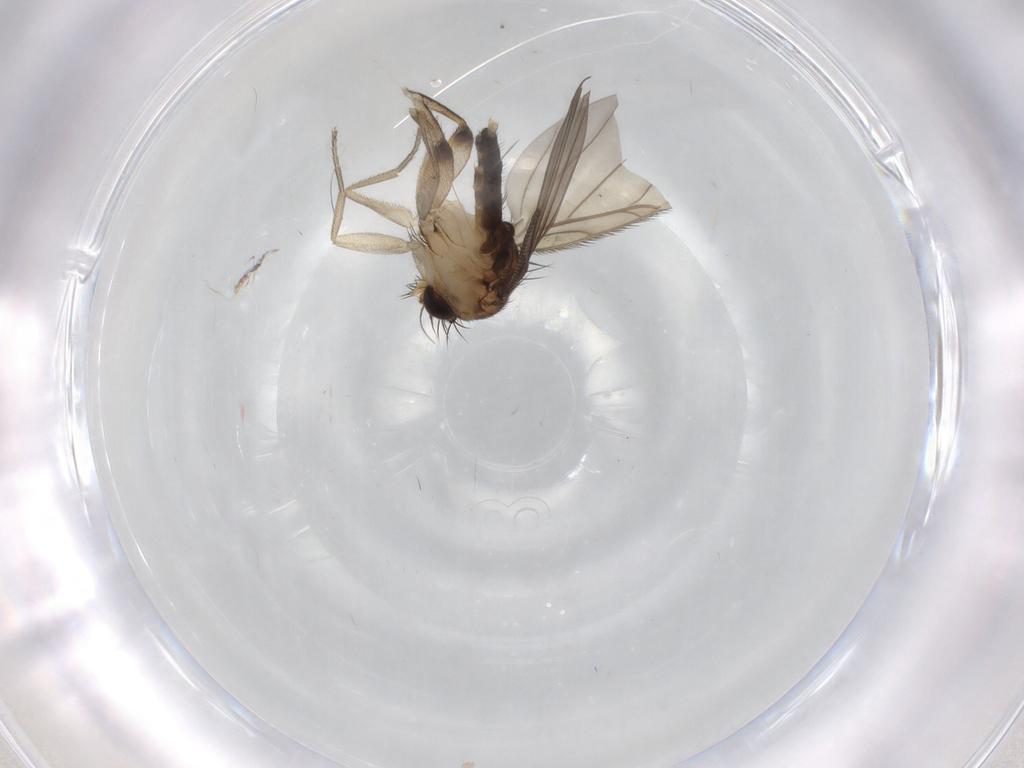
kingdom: Animalia
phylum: Arthropoda
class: Insecta
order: Diptera
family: Phoridae
